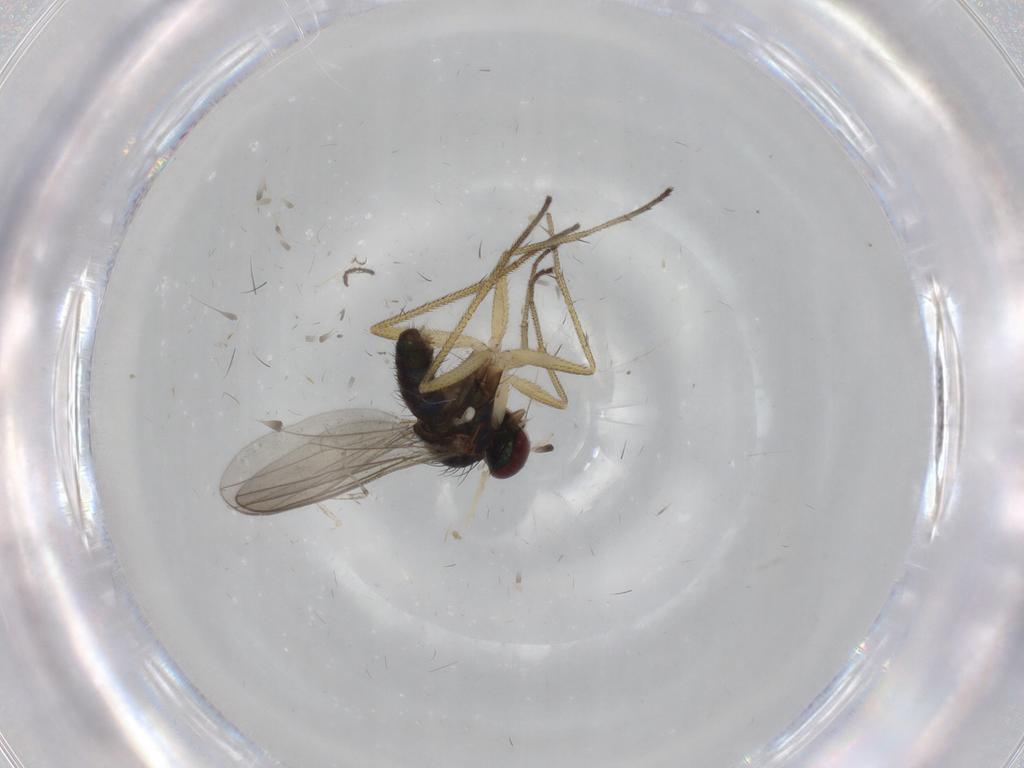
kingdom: Animalia
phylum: Arthropoda
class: Insecta
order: Diptera
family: Dolichopodidae
